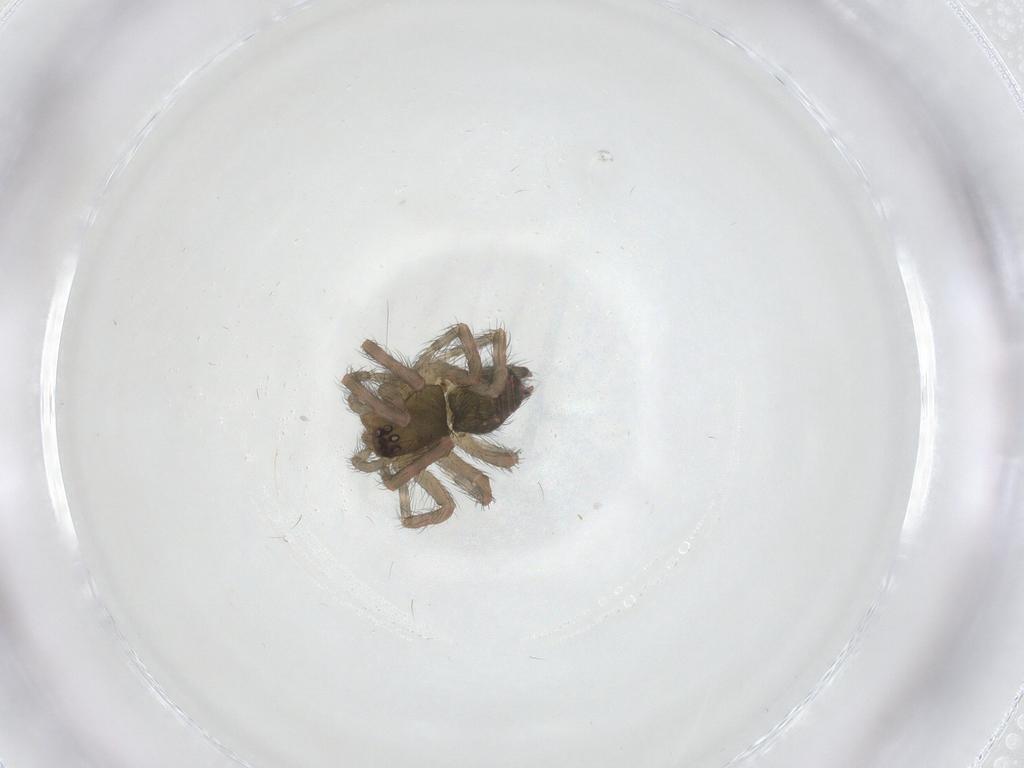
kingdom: Animalia
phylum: Arthropoda
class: Arachnida
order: Araneae
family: Agelenidae
